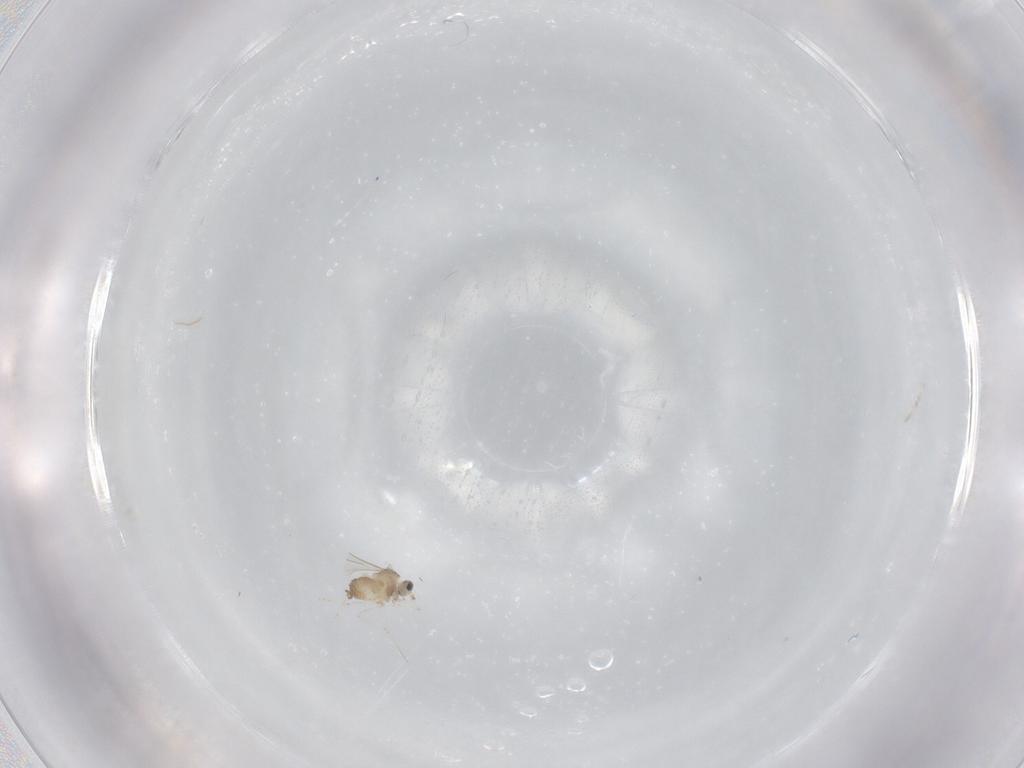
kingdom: Animalia
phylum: Arthropoda
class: Insecta
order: Diptera
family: Cecidomyiidae
